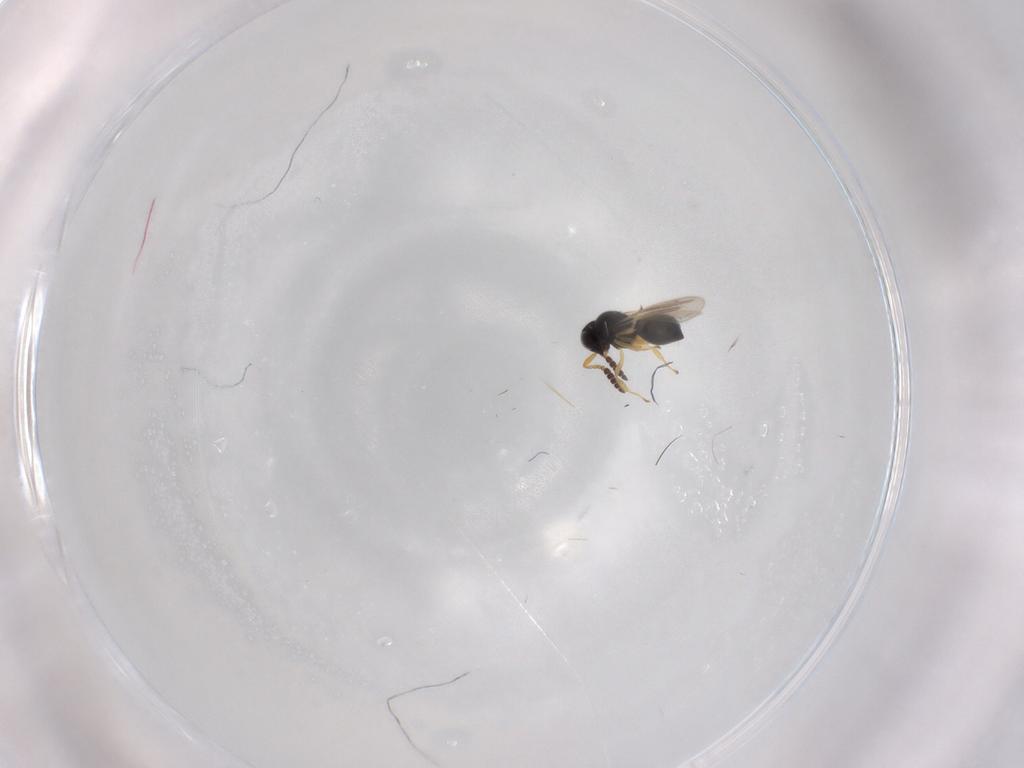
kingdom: Animalia
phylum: Arthropoda
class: Insecta
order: Hymenoptera
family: Scelionidae
